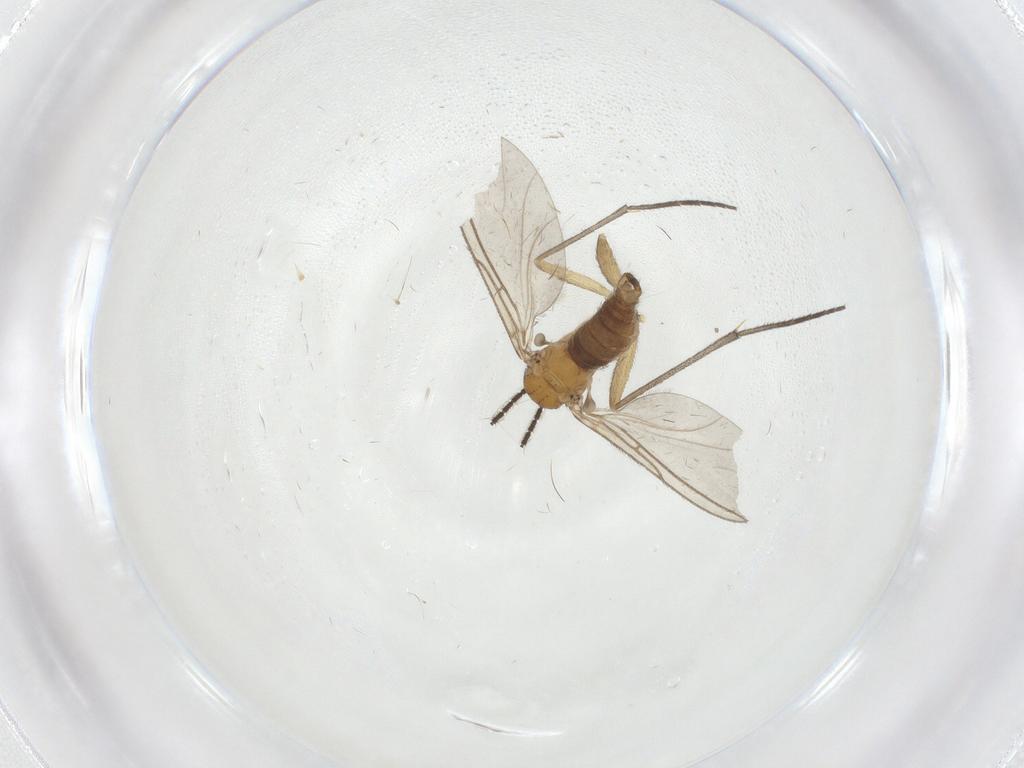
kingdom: Animalia
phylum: Arthropoda
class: Insecta
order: Diptera
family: Sciaridae
